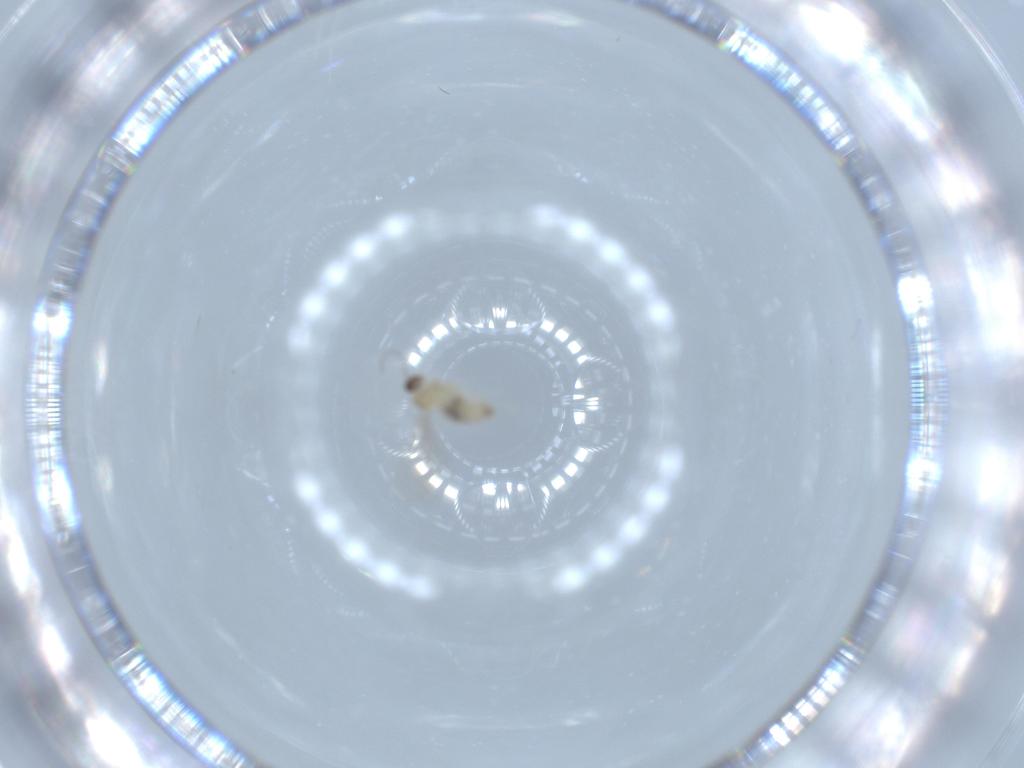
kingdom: Animalia
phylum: Arthropoda
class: Insecta
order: Diptera
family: Cecidomyiidae
